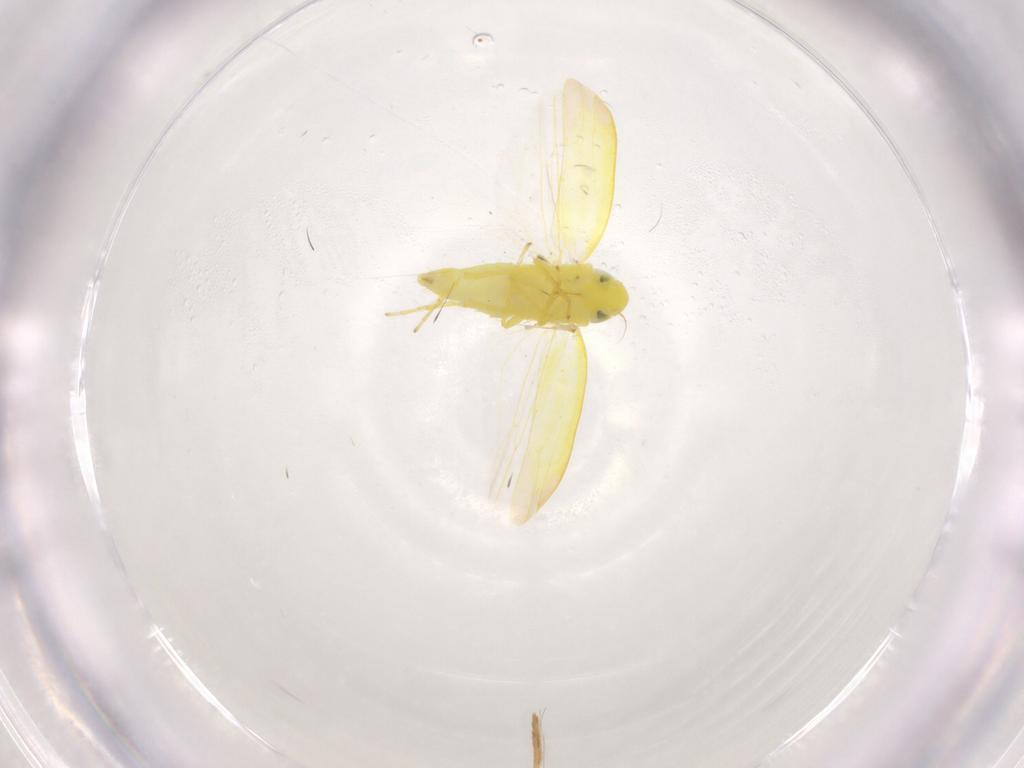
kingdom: Animalia
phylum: Arthropoda
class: Insecta
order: Hemiptera
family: Cicadellidae
